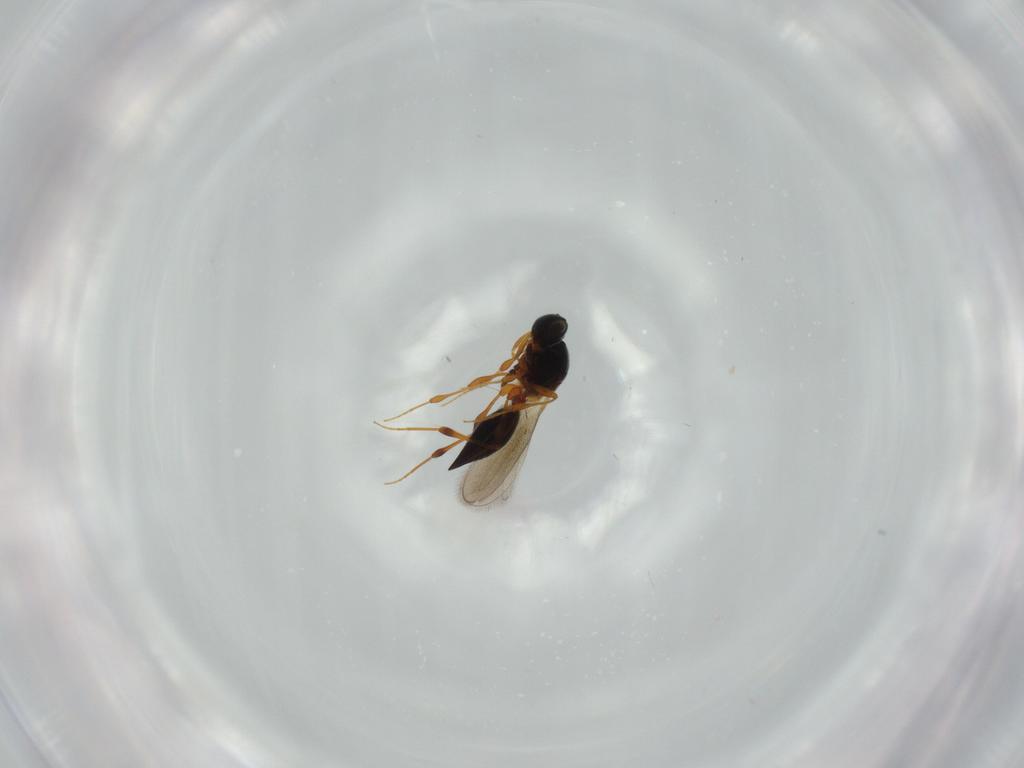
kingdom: Animalia
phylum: Arthropoda
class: Insecta
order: Hymenoptera
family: Platygastridae
